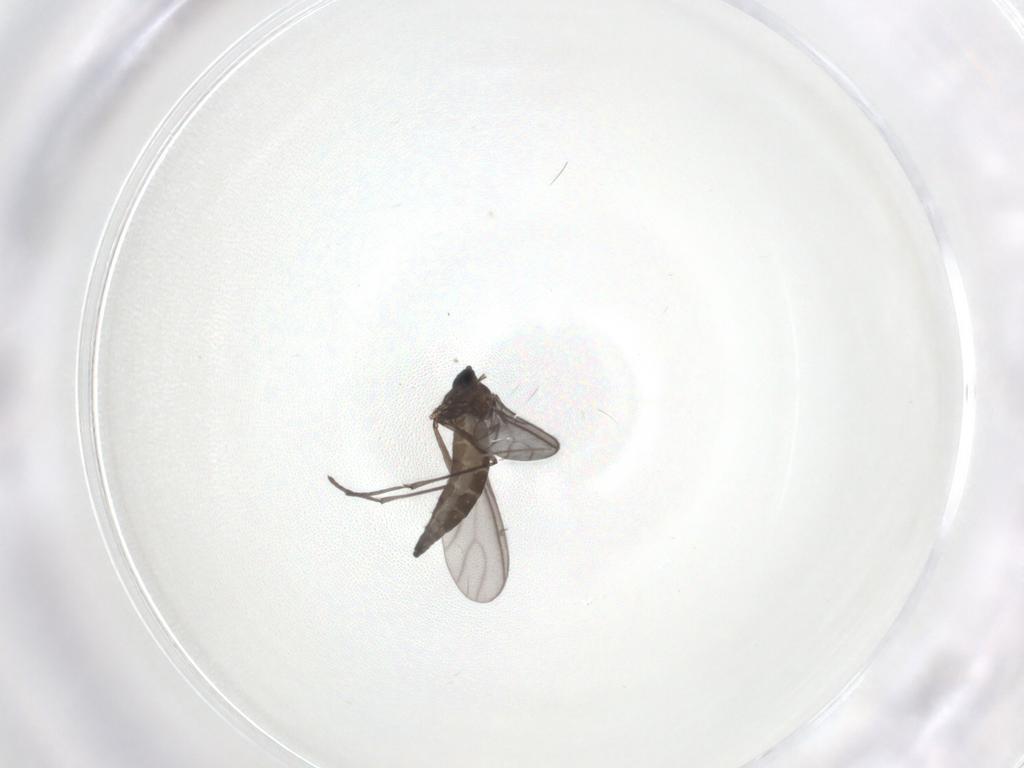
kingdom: Animalia
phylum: Arthropoda
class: Insecta
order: Diptera
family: Sciaridae
